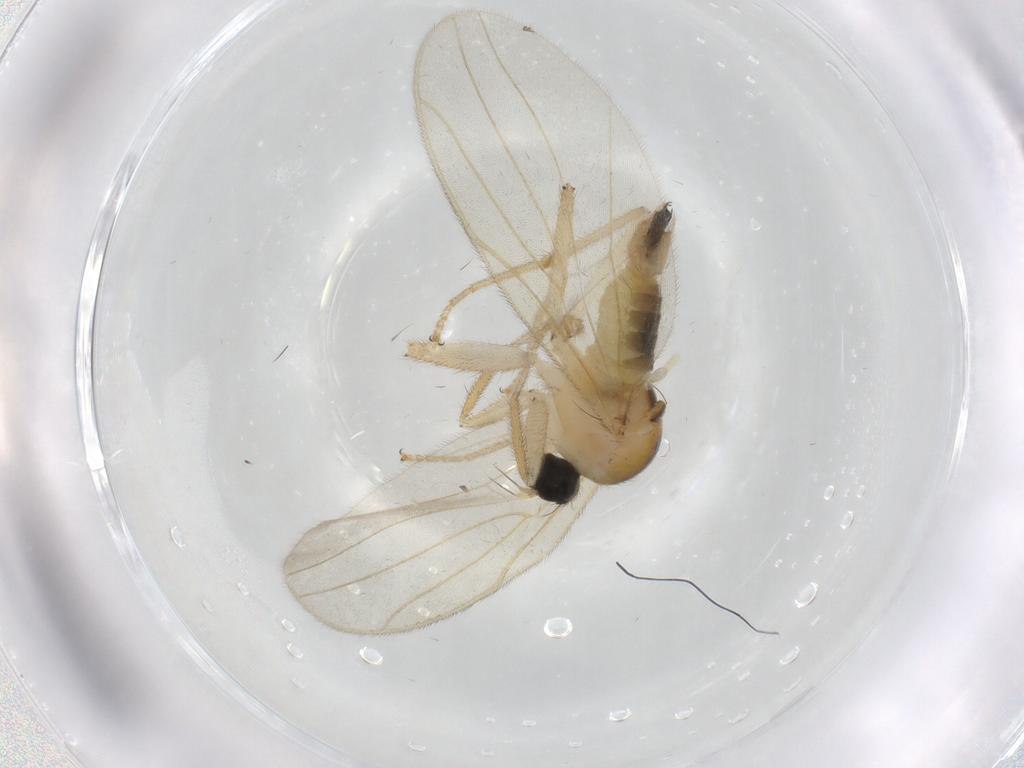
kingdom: Animalia
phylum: Arthropoda
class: Insecta
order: Diptera
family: Hybotidae
